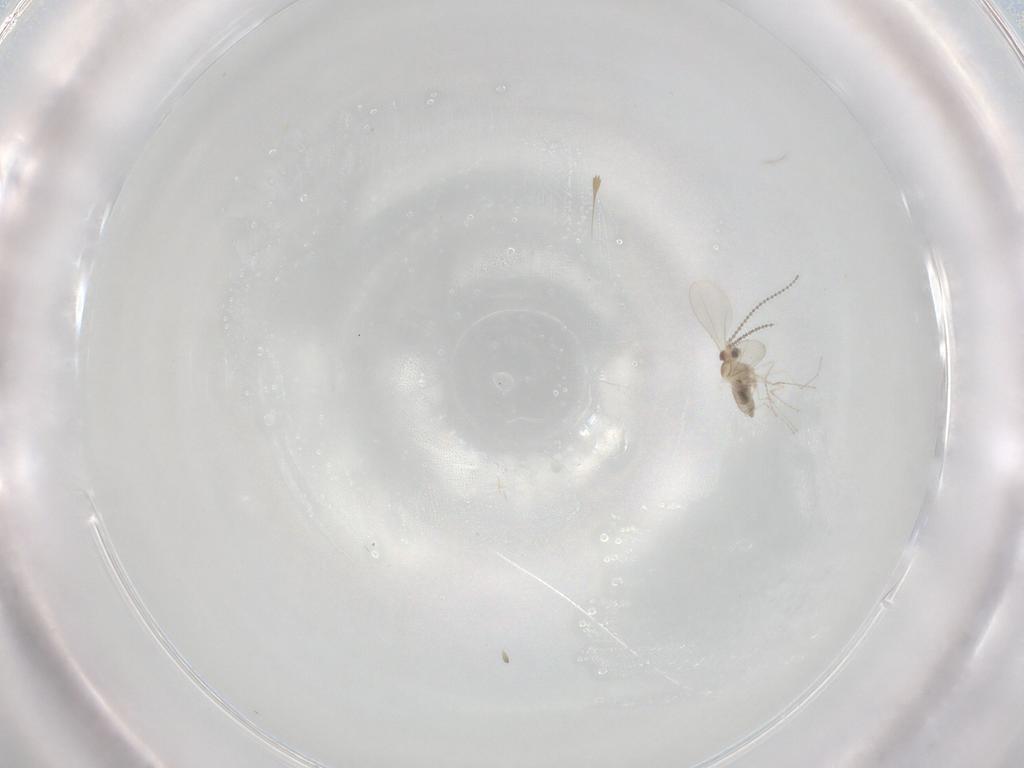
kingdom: Animalia
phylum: Arthropoda
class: Insecta
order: Diptera
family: Cecidomyiidae
